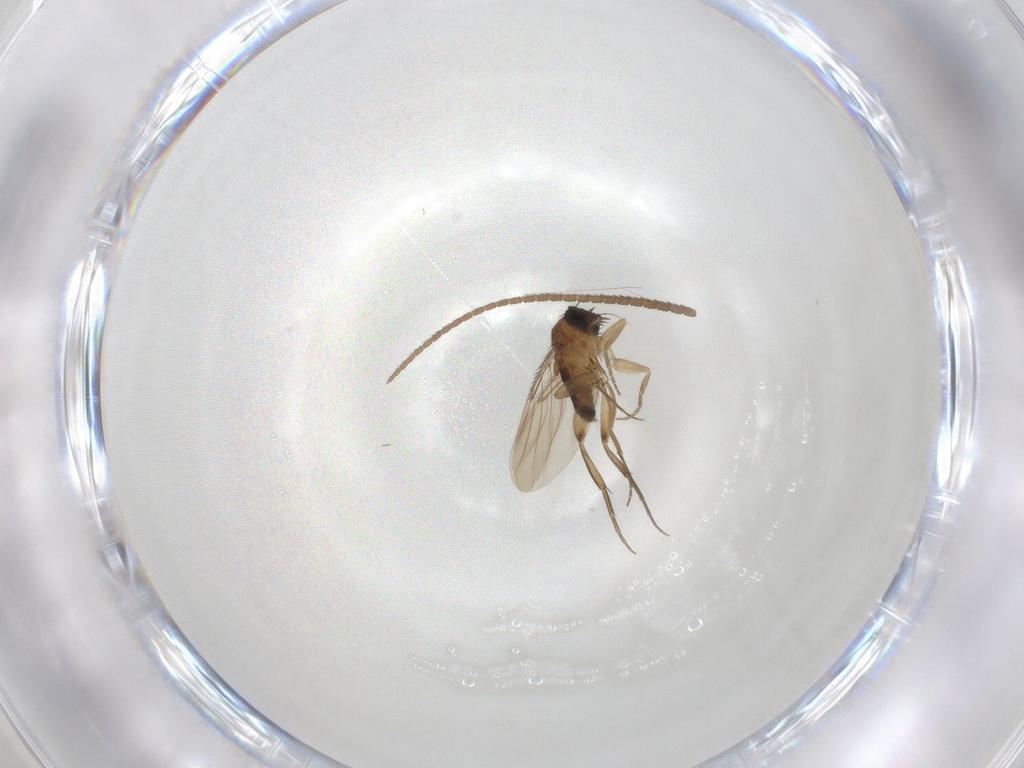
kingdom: Animalia
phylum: Arthropoda
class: Insecta
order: Diptera
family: Phoridae
